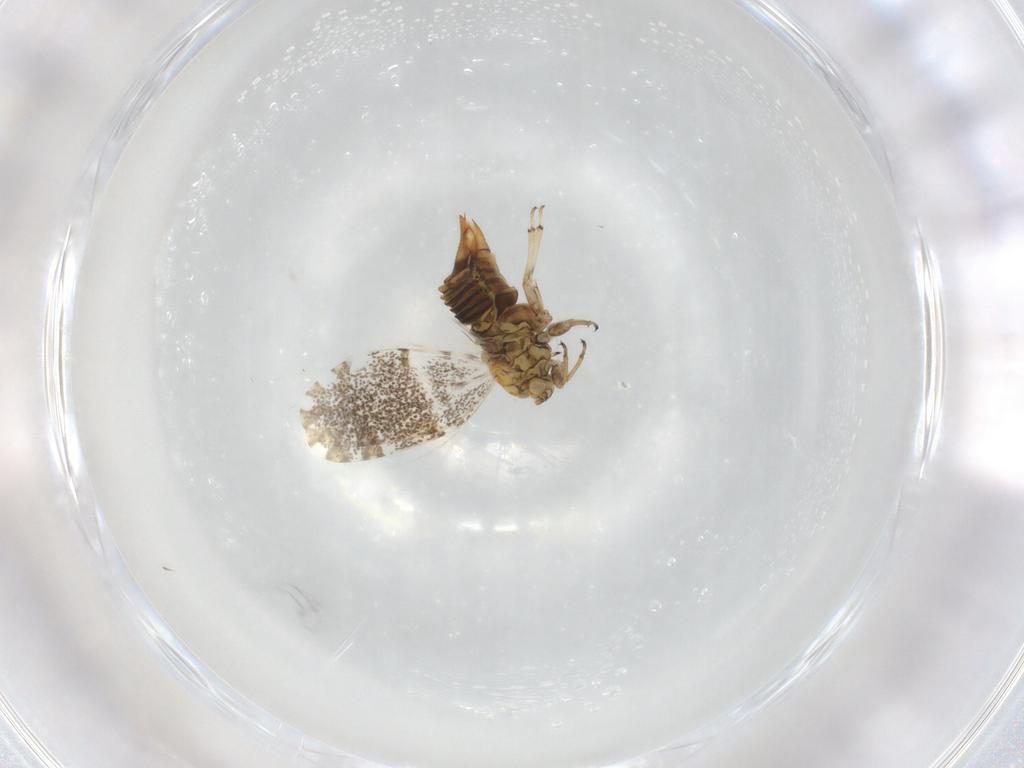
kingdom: Animalia
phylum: Arthropoda
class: Insecta
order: Hemiptera
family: Psylloidea_incertae_sedis
